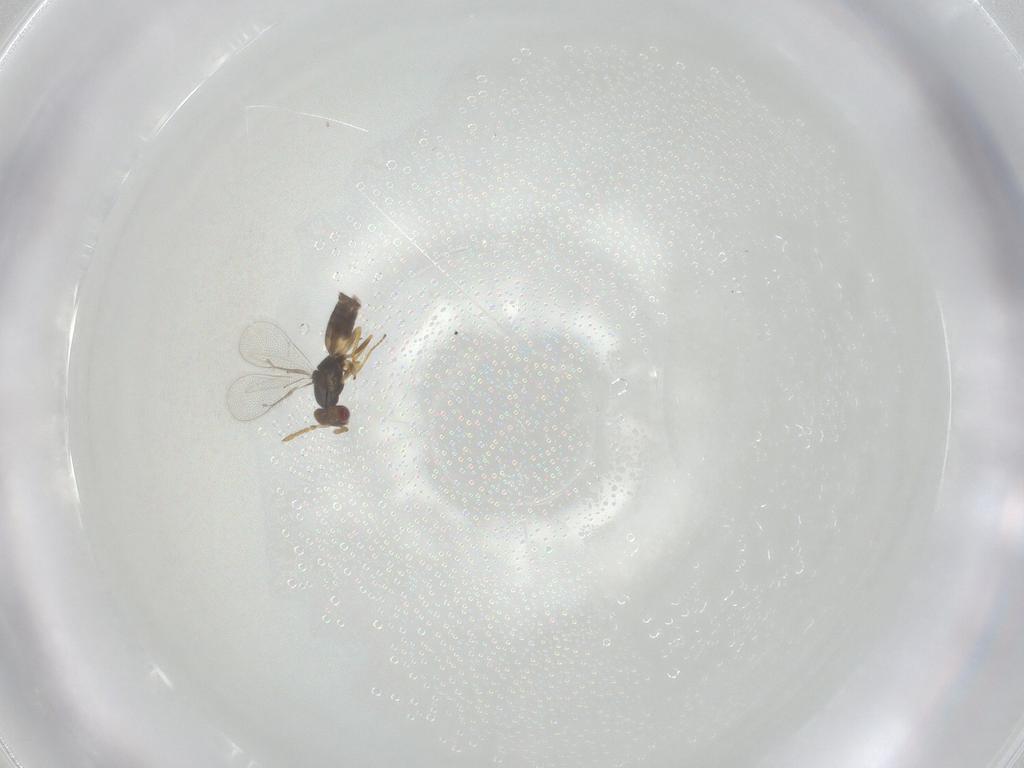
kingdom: Animalia
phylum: Arthropoda
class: Insecta
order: Hymenoptera
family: Eulophidae
